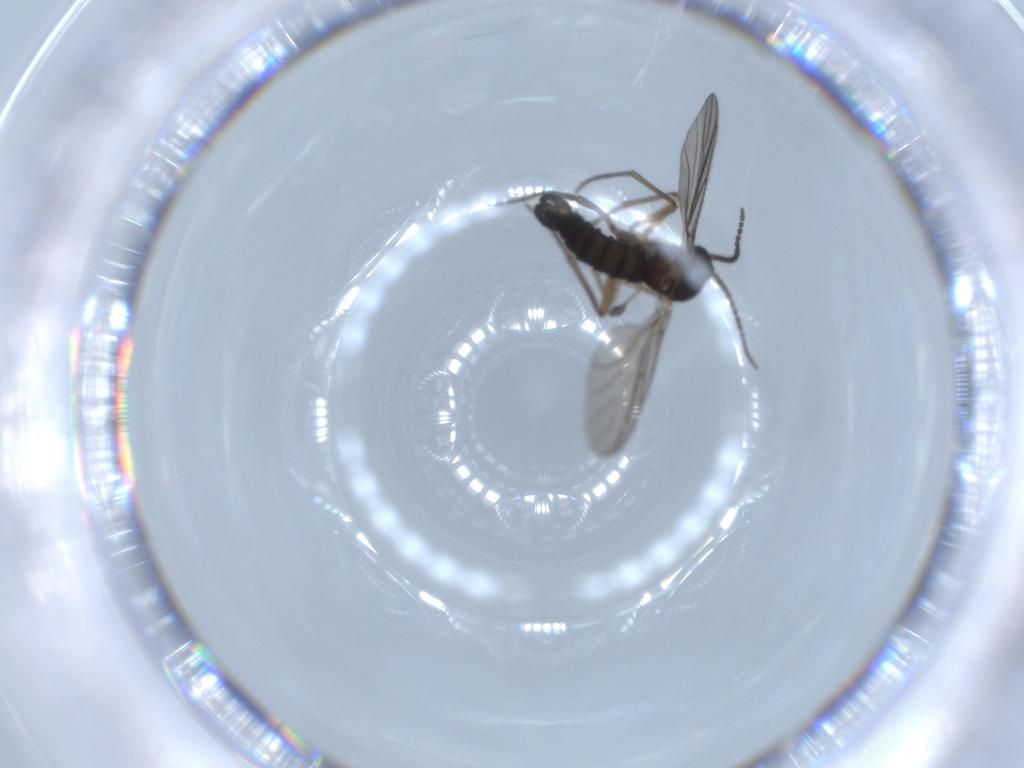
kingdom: Animalia
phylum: Arthropoda
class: Insecta
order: Diptera
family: Sciaridae
